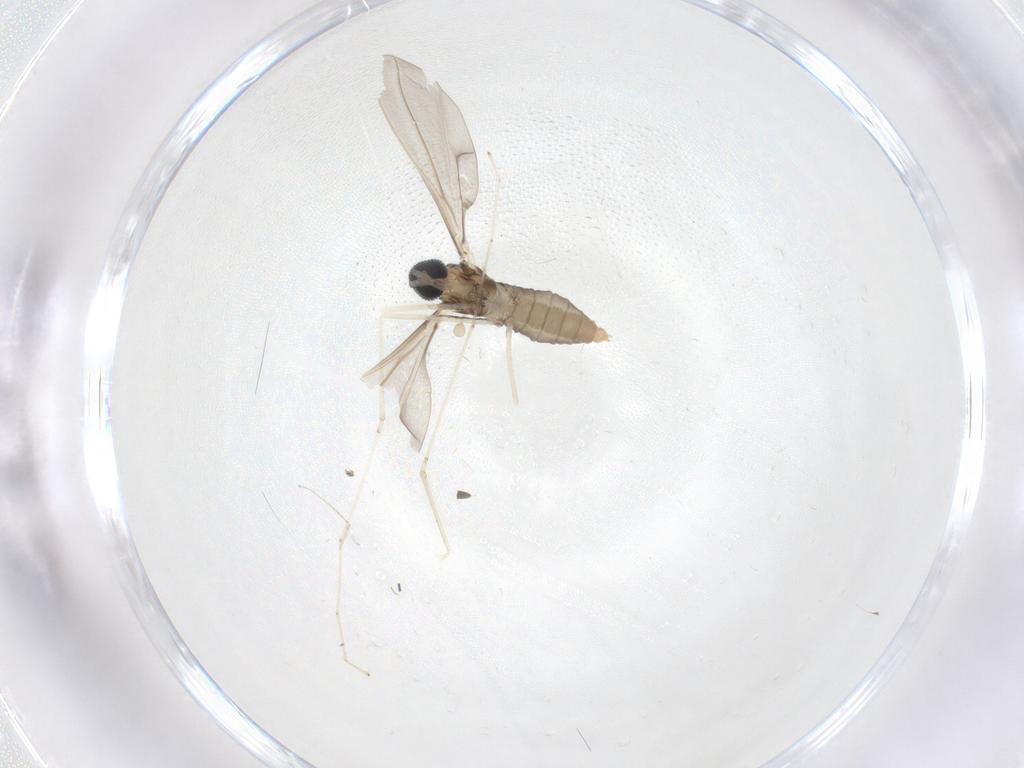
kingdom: Animalia
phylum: Arthropoda
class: Insecta
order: Diptera
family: Cecidomyiidae
